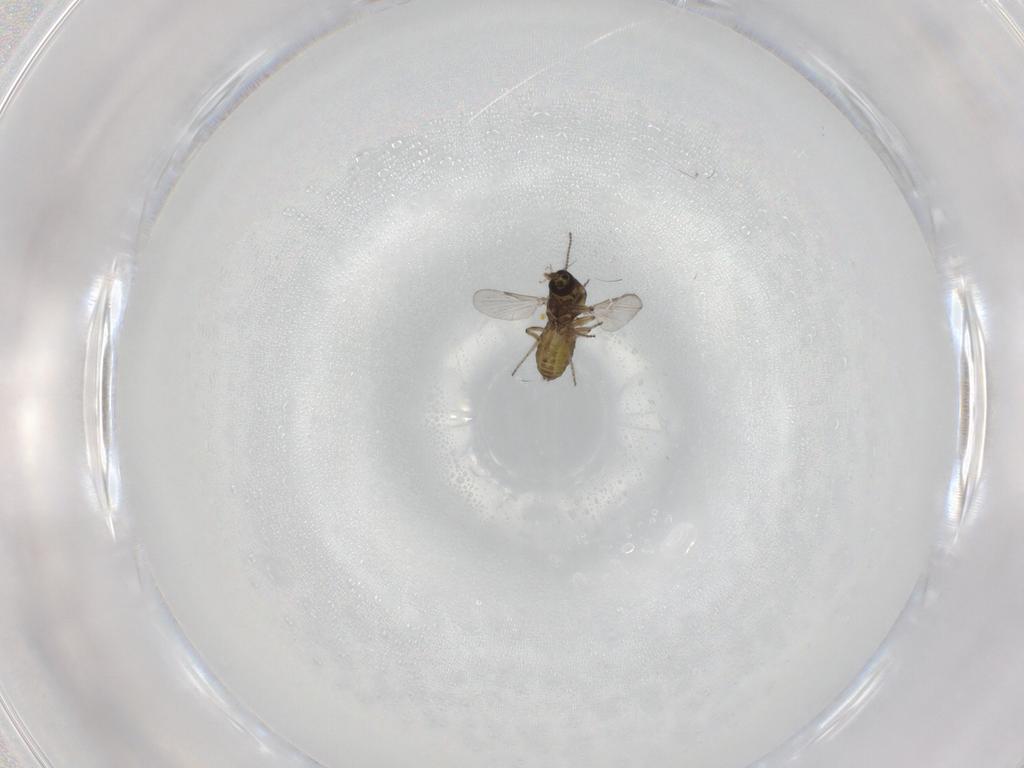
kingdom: Animalia
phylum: Arthropoda
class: Insecta
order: Diptera
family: Ceratopogonidae
